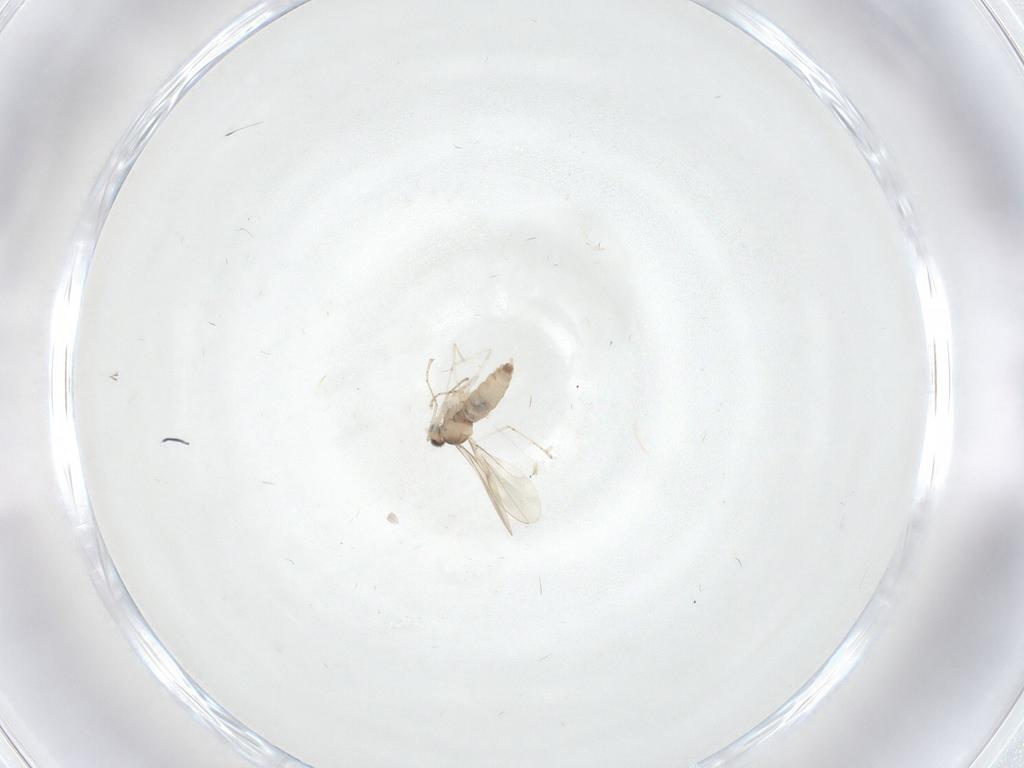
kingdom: Animalia
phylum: Arthropoda
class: Insecta
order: Diptera
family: Cecidomyiidae
